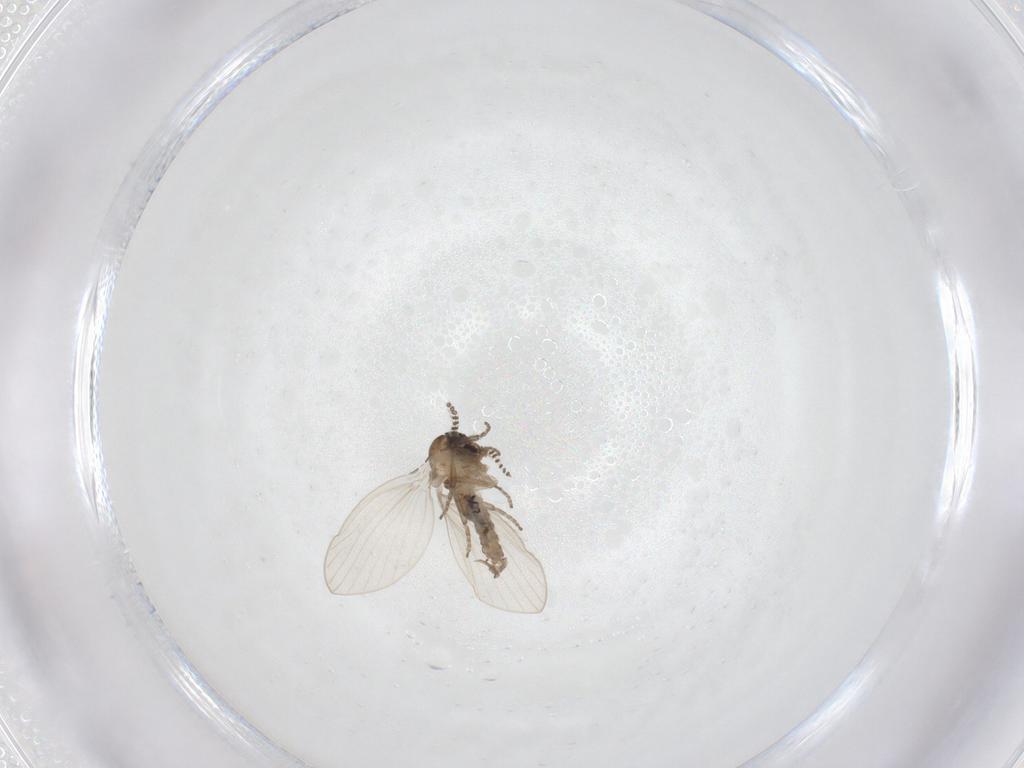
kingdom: Animalia
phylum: Arthropoda
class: Insecta
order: Diptera
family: Psychodidae
